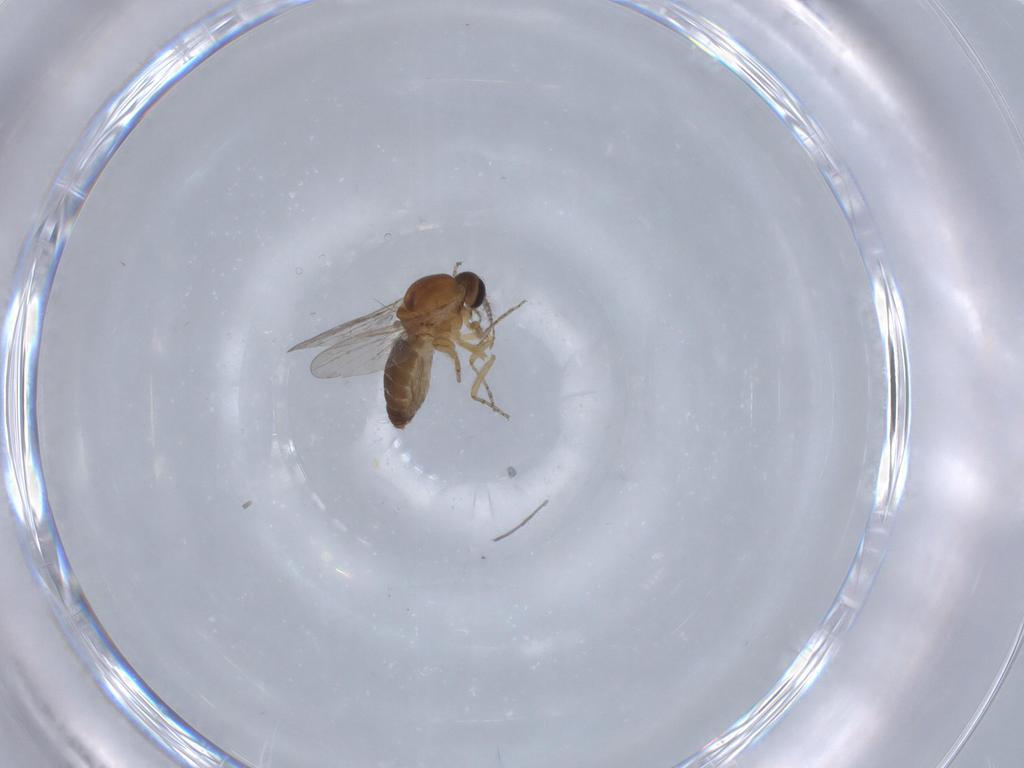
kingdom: Animalia
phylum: Arthropoda
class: Insecta
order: Diptera
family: Ceratopogonidae
